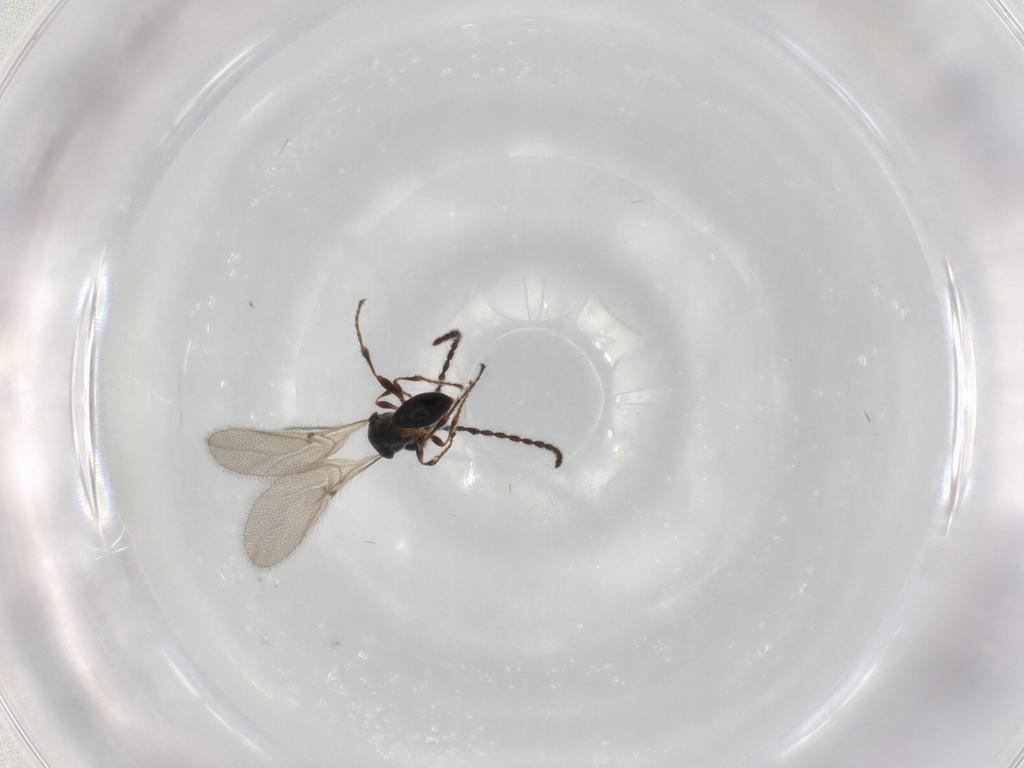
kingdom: Animalia
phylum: Arthropoda
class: Insecta
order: Hymenoptera
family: Diapriidae
